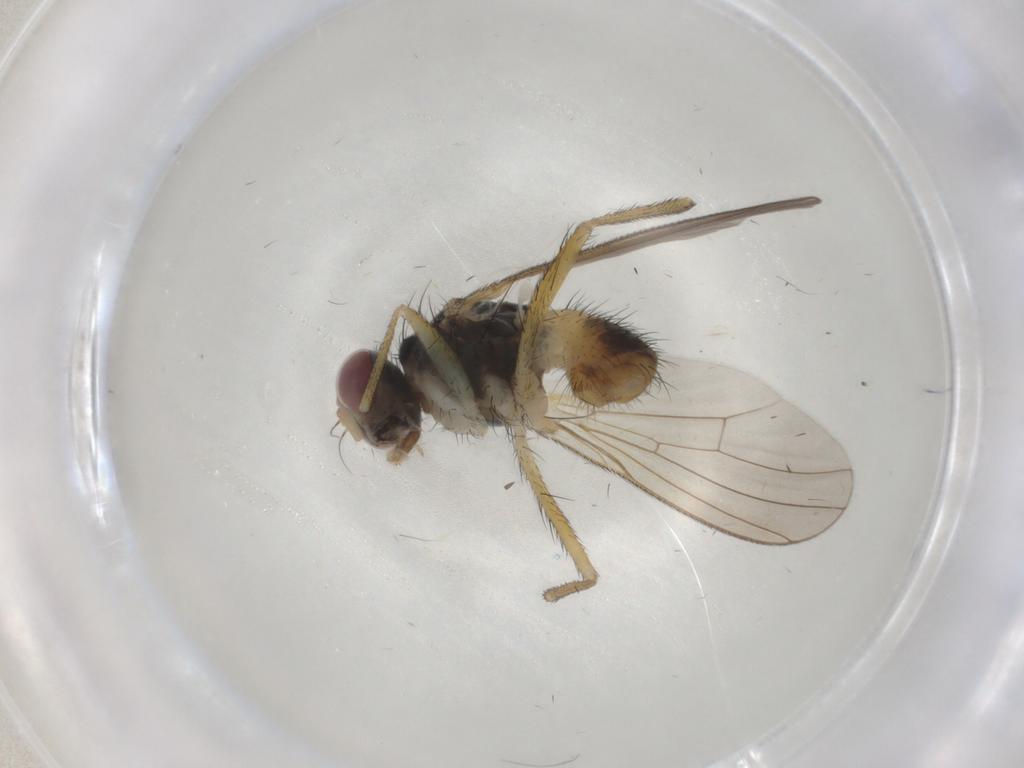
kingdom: Animalia
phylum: Arthropoda
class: Insecta
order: Diptera
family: Muscidae
